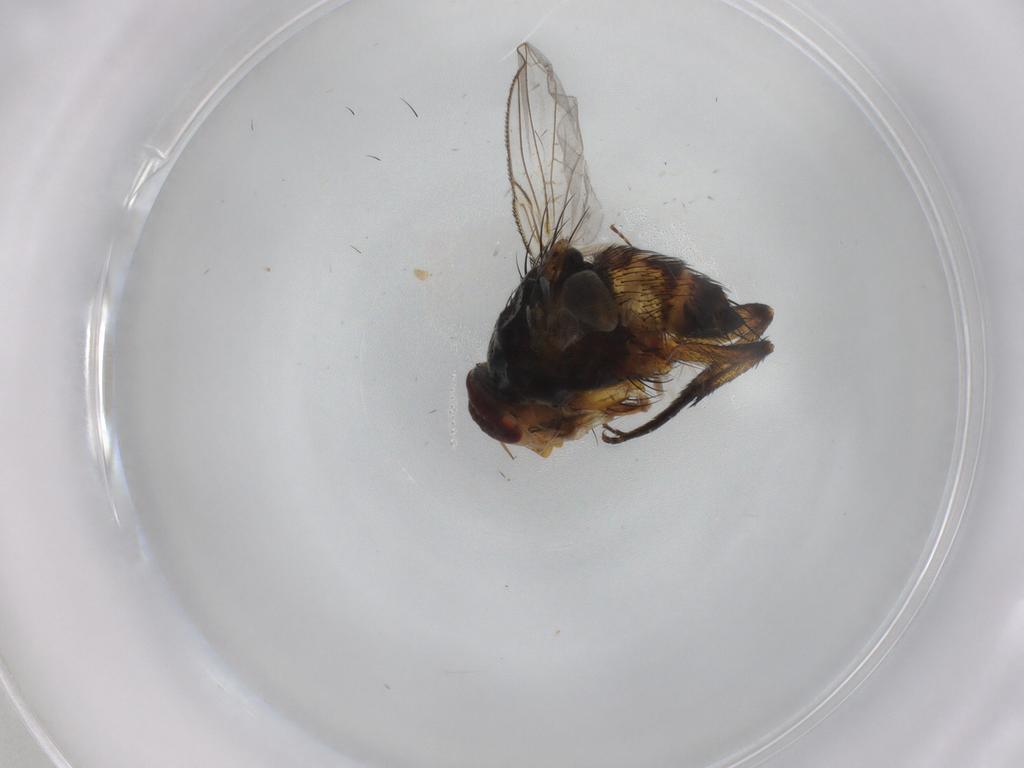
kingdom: Animalia
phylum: Arthropoda
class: Insecta
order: Diptera
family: Tachinidae
